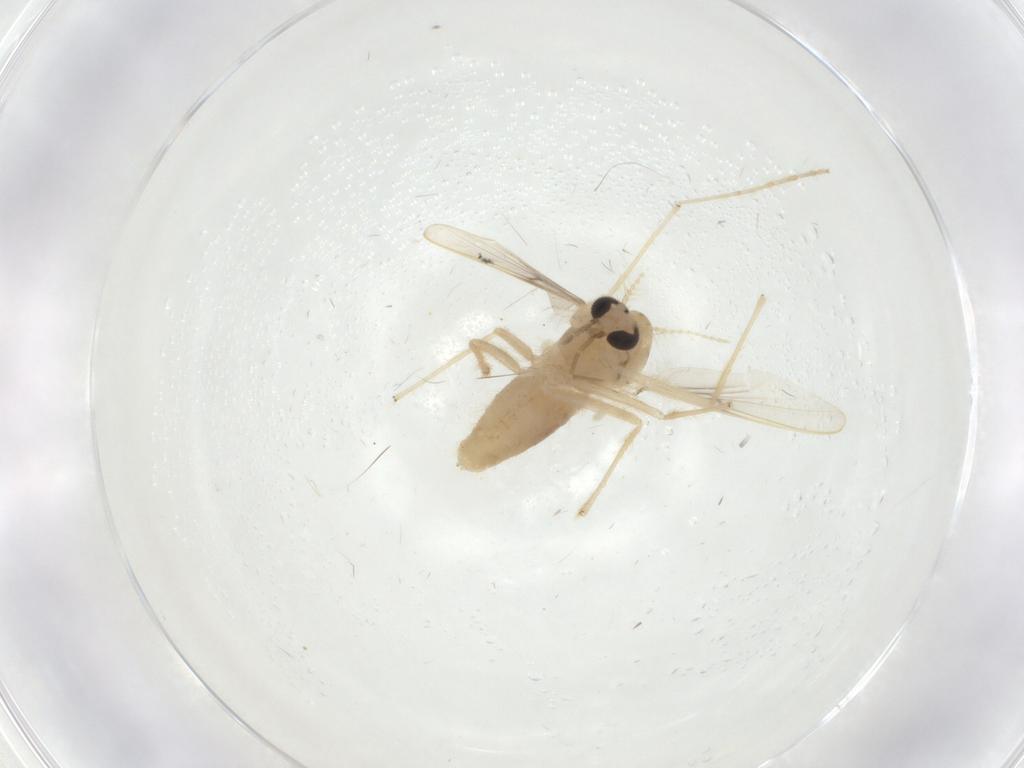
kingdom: Animalia
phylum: Arthropoda
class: Insecta
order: Diptera
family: Chironomidae
